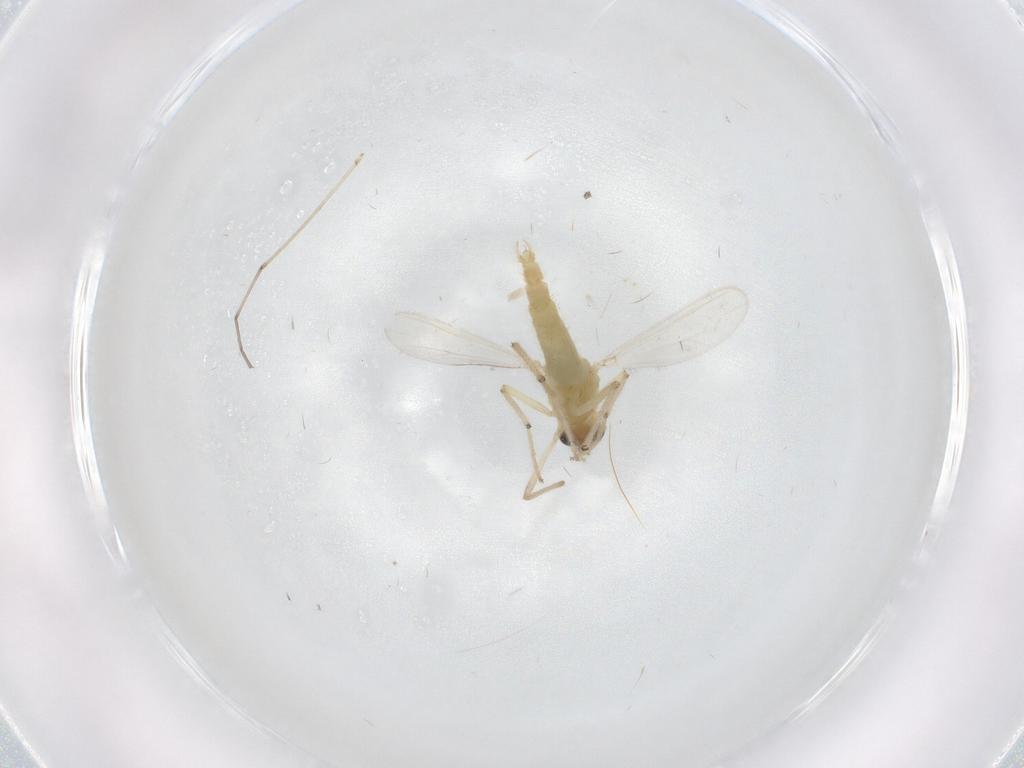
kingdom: Animalia
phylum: Arthropoda
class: Insecta
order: Diptera
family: Chironomidae
